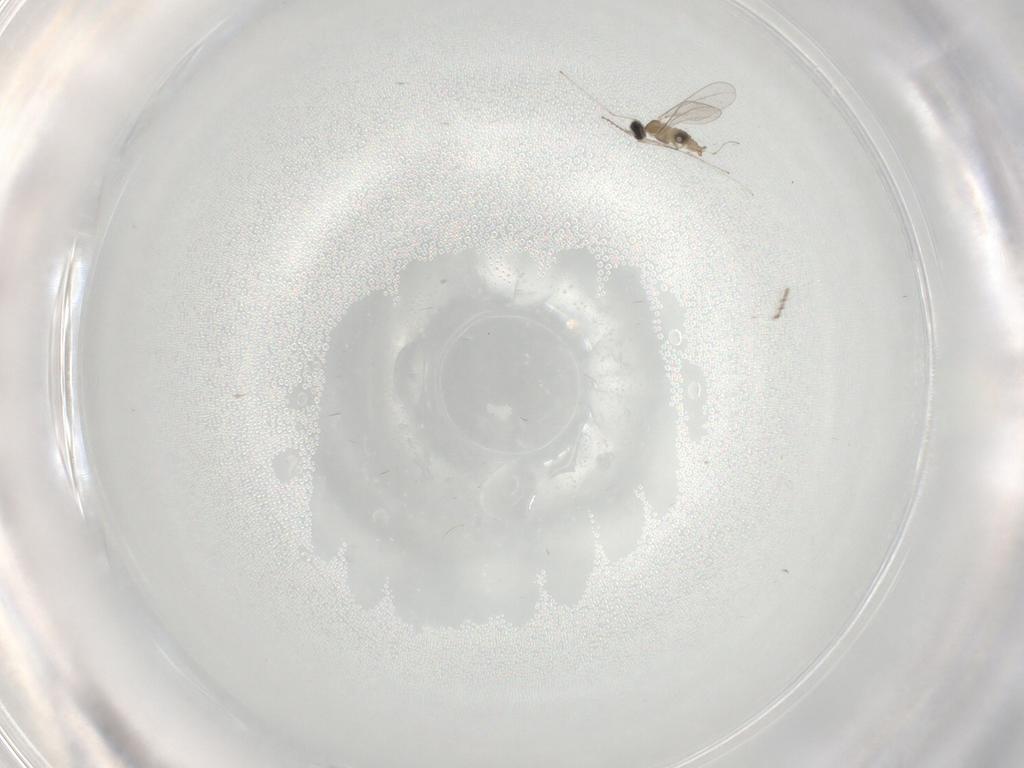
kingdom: Animalia
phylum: Arthropoda
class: Insecta
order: Diptera
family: Cecidomyiidae
